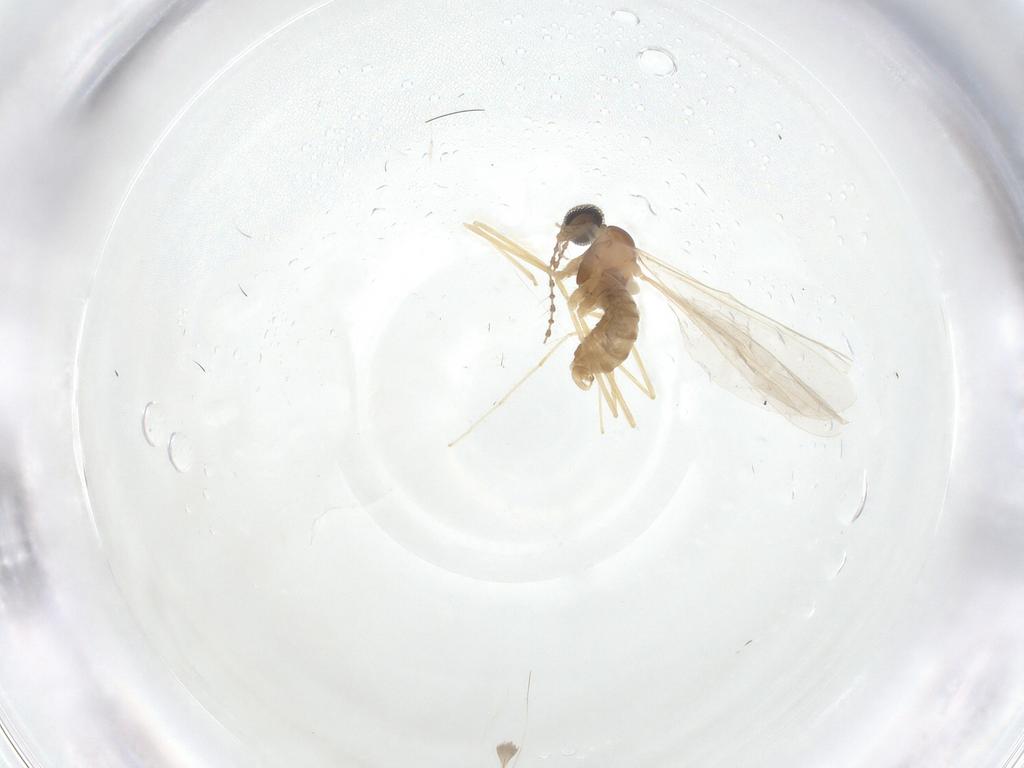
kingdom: Animalia
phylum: Arthropoda
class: Insecta
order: Diptera
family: Cecidomyiidae
